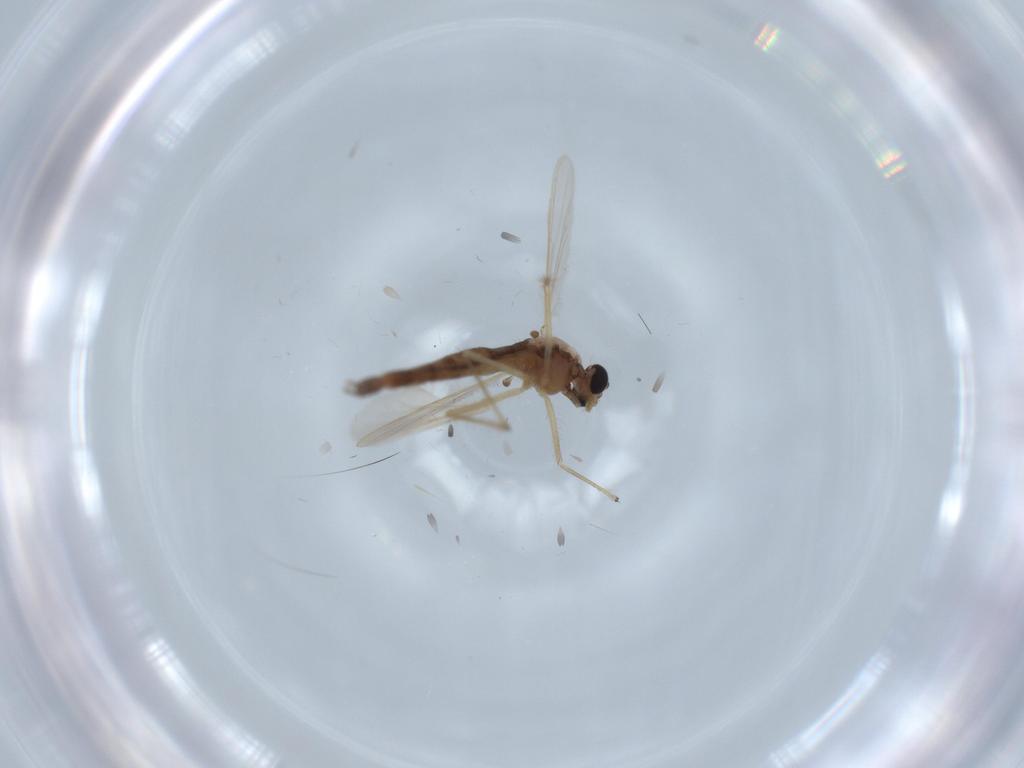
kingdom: Animalia
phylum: Arthropoda
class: Insecta
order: Diptera
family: Chironomidae
